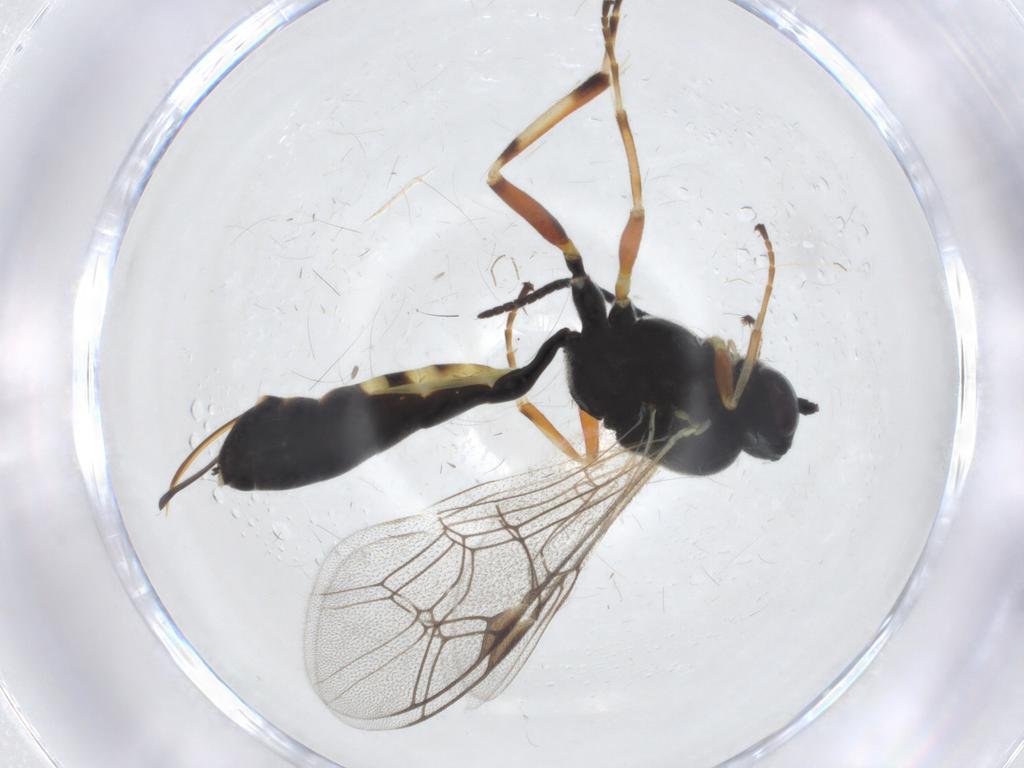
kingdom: Animalia
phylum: Arthropoda
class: Insecta
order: Hymenoptera
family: Ichneumonidae
